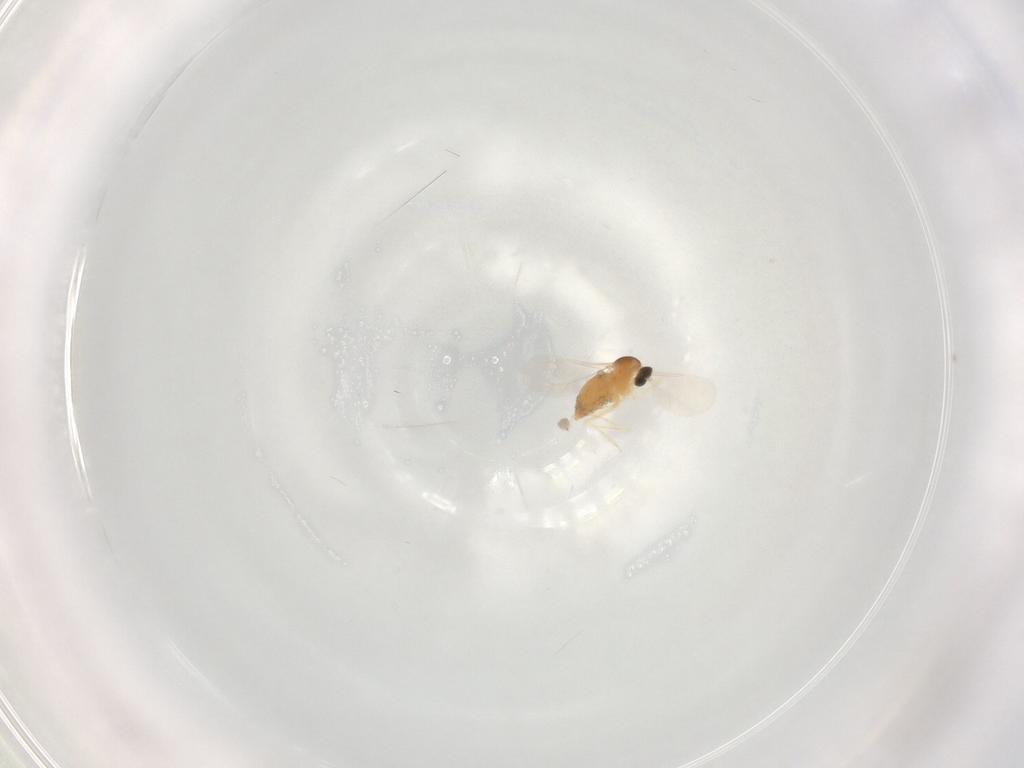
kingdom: Animalia
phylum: Arthropoda
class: Insecta
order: Diptera
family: Cecidomyiidae
